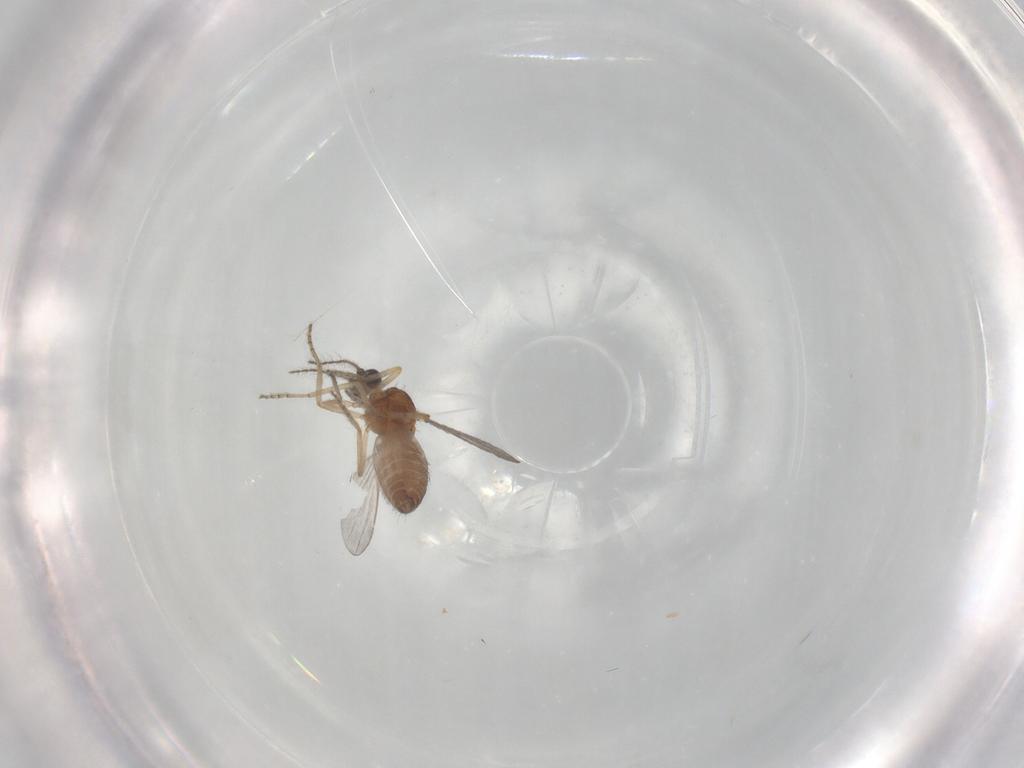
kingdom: Animalia
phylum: Arthropoda
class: Insecta
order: Diptera
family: Ceratopogonidae
